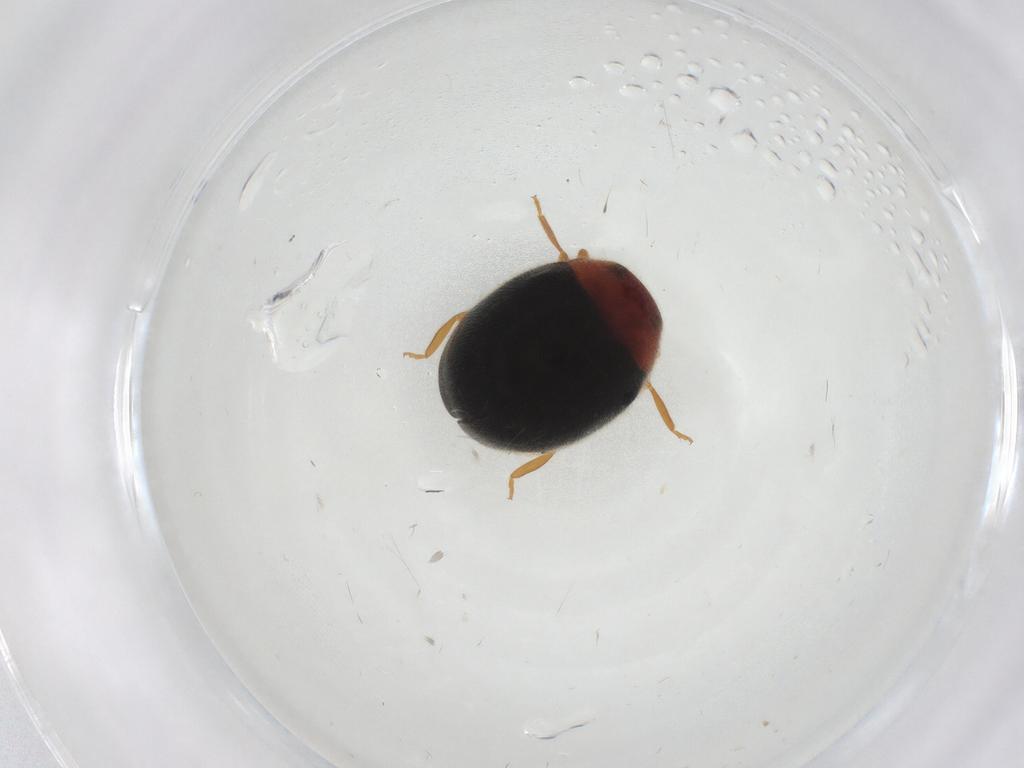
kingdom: Animalia
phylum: Arthropoda
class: Insecta
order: Coleoptera
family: Coccinellidae
